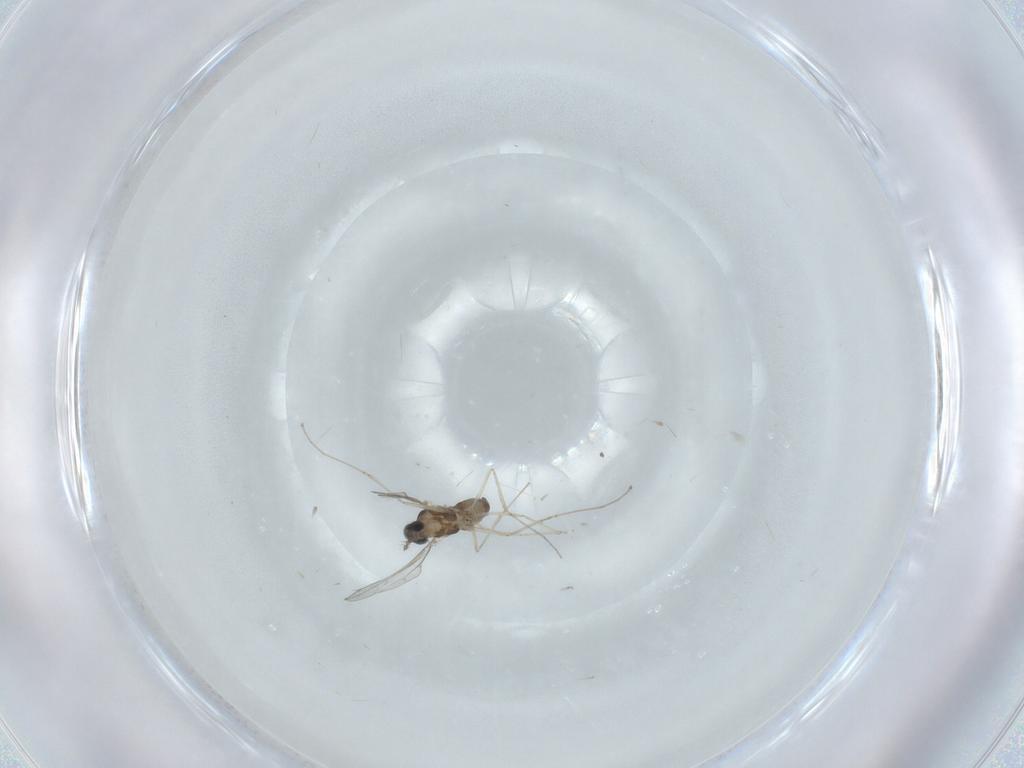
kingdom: Animalia
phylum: Arthropoda
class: Insecta
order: Diptera
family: Cecidomyiidae
